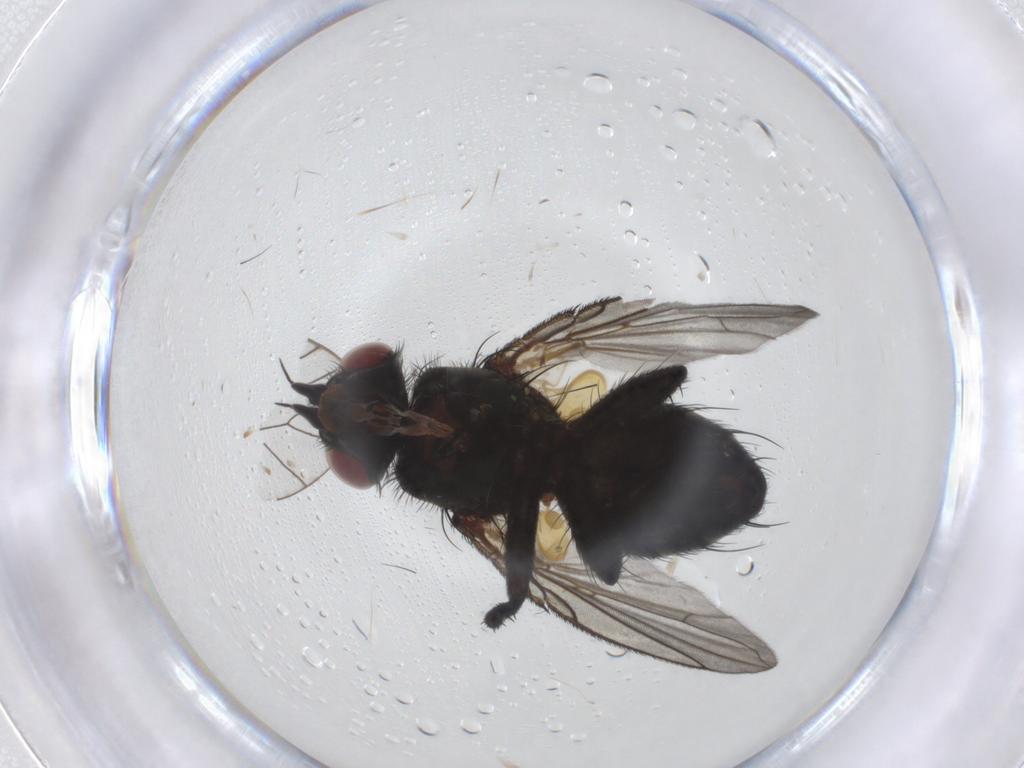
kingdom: Animalia
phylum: Arthropoda
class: Insecta
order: Diptera
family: Tachinidae
